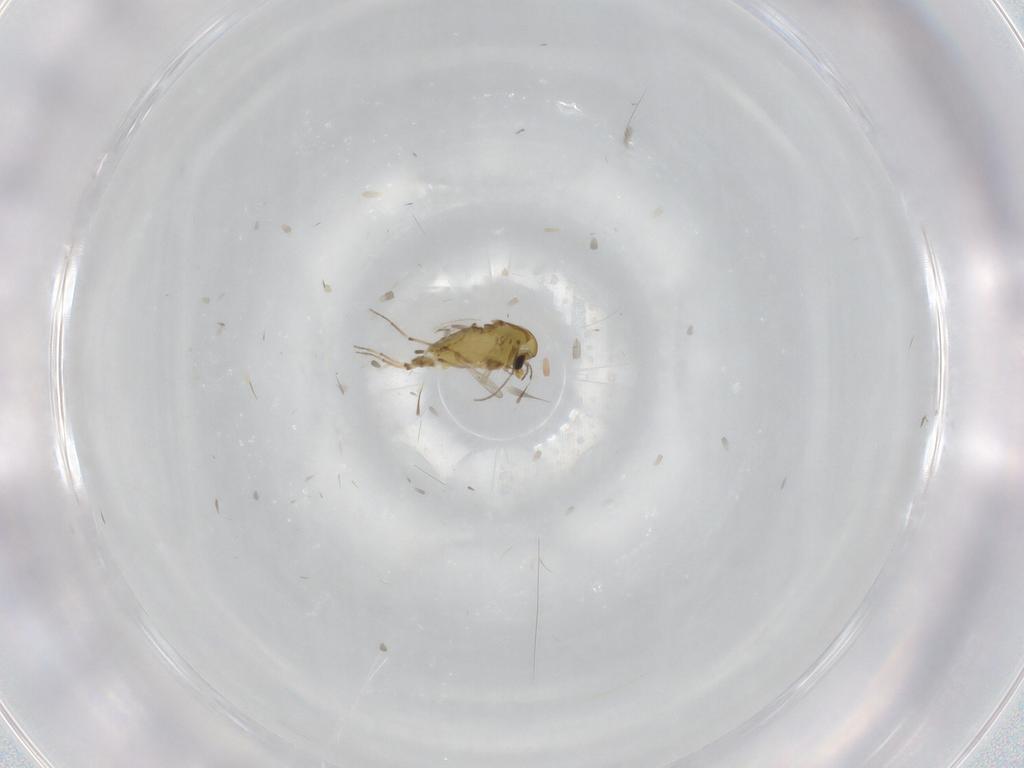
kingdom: Animalia
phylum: Arthropoda
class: Insecta
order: Diptera
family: Chironomidae
